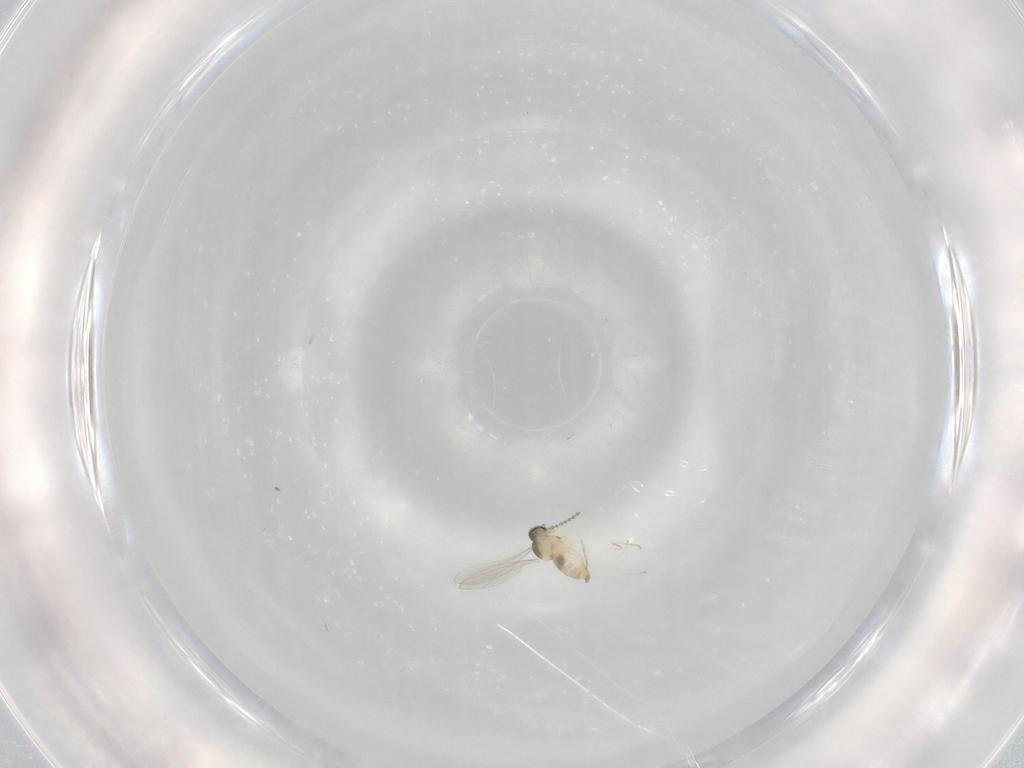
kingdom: Animalia
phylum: Arthropoda
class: Insecta
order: Diptera
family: Cecidomyiidae
